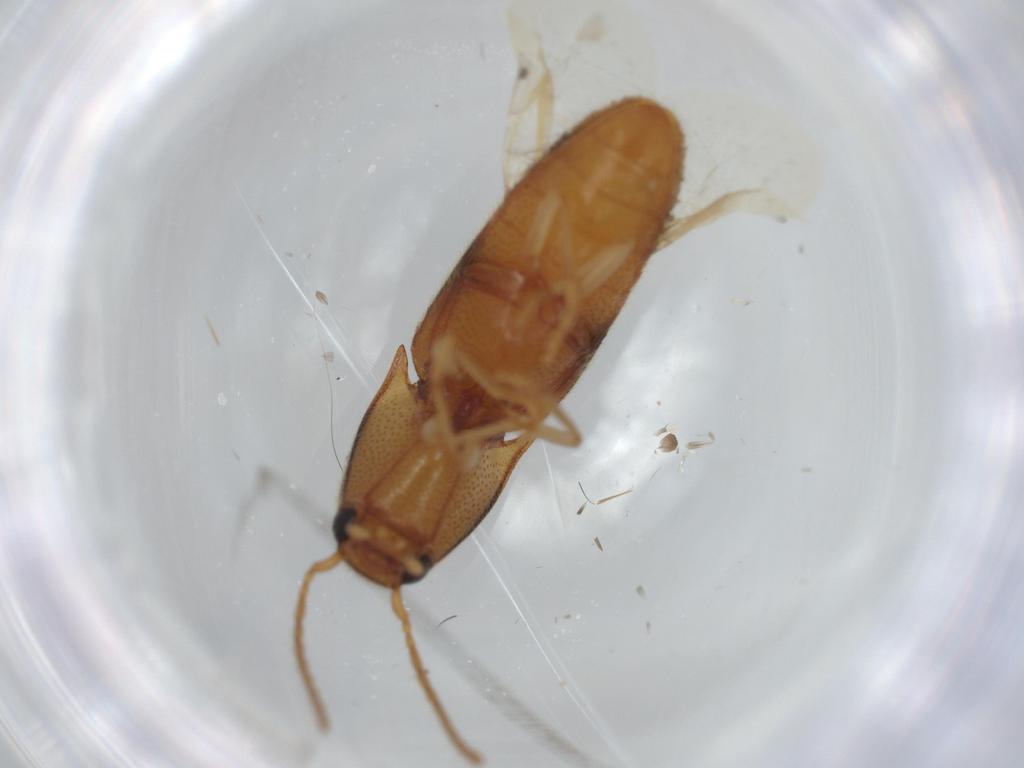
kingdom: Animalia
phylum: Arthropoda
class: Insecta
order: Coleoptera
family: Elateridae
